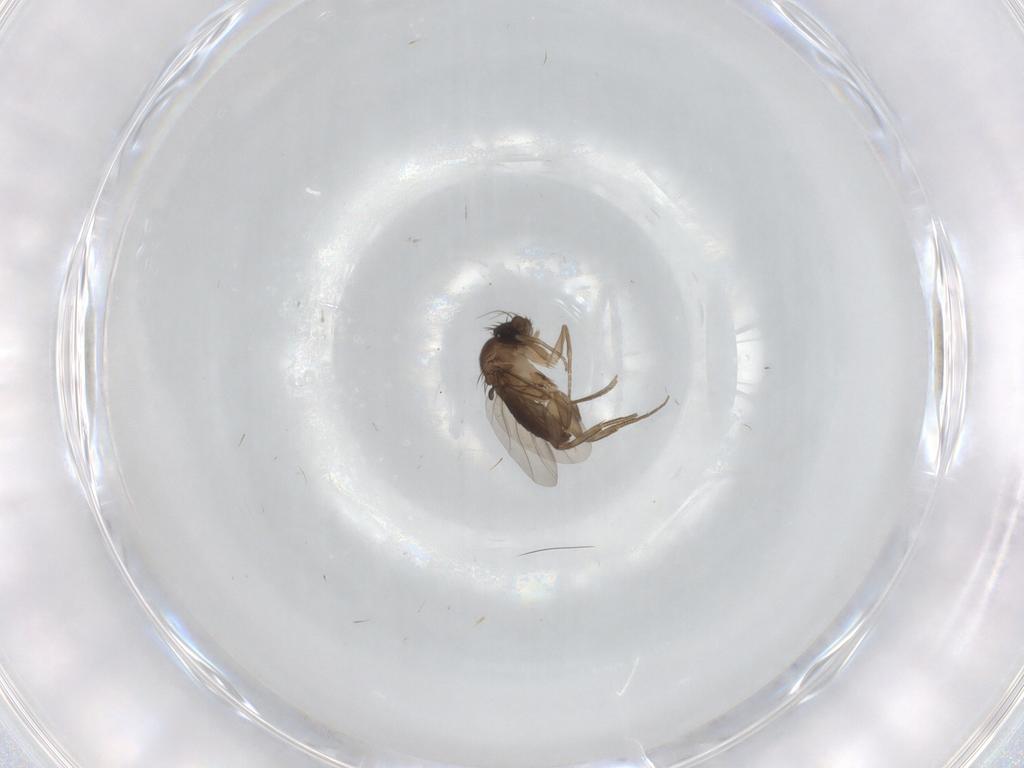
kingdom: Animalia
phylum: Arthropoda
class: Insecta
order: Diptera
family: Phoridae
